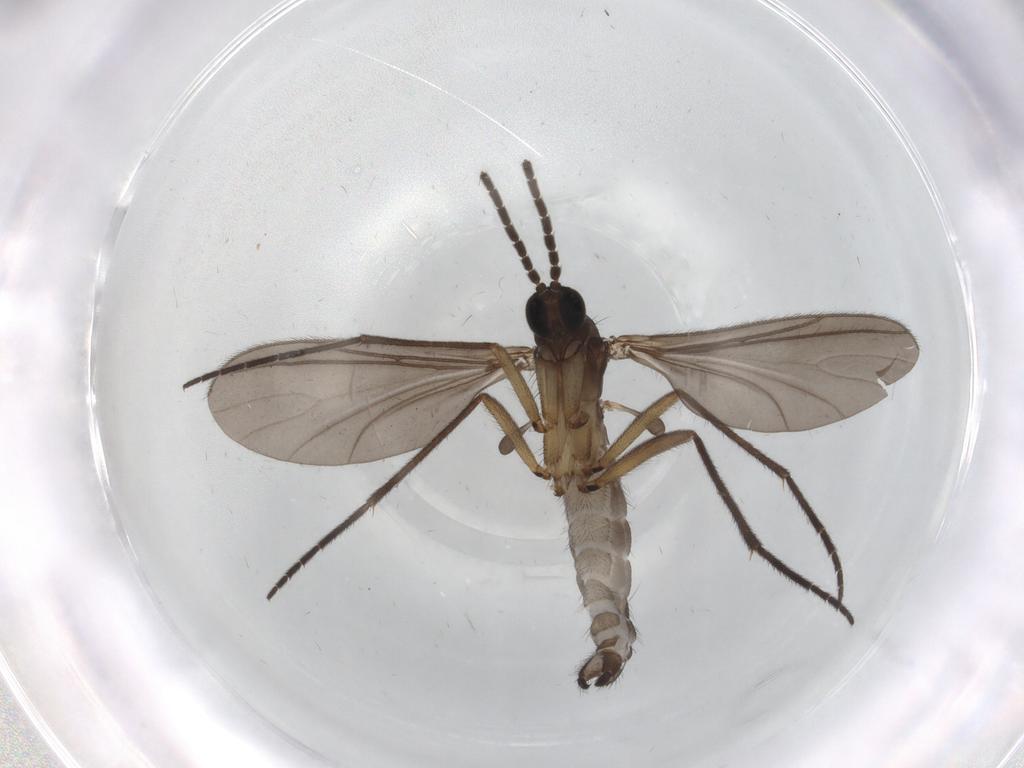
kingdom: Animalia
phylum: Arthropoda
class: Insecta
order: Diptera
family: Sciaridae
